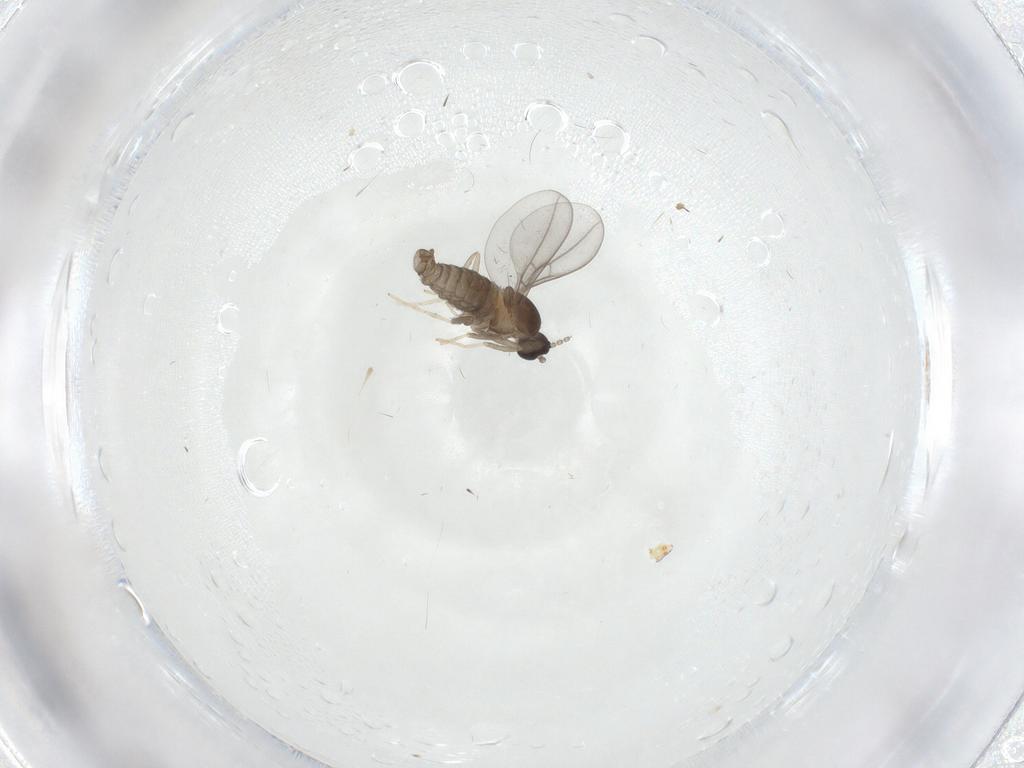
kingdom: Animalia
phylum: Arthropoda
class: Insecta
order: Diptera
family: Cecidomyiidae
